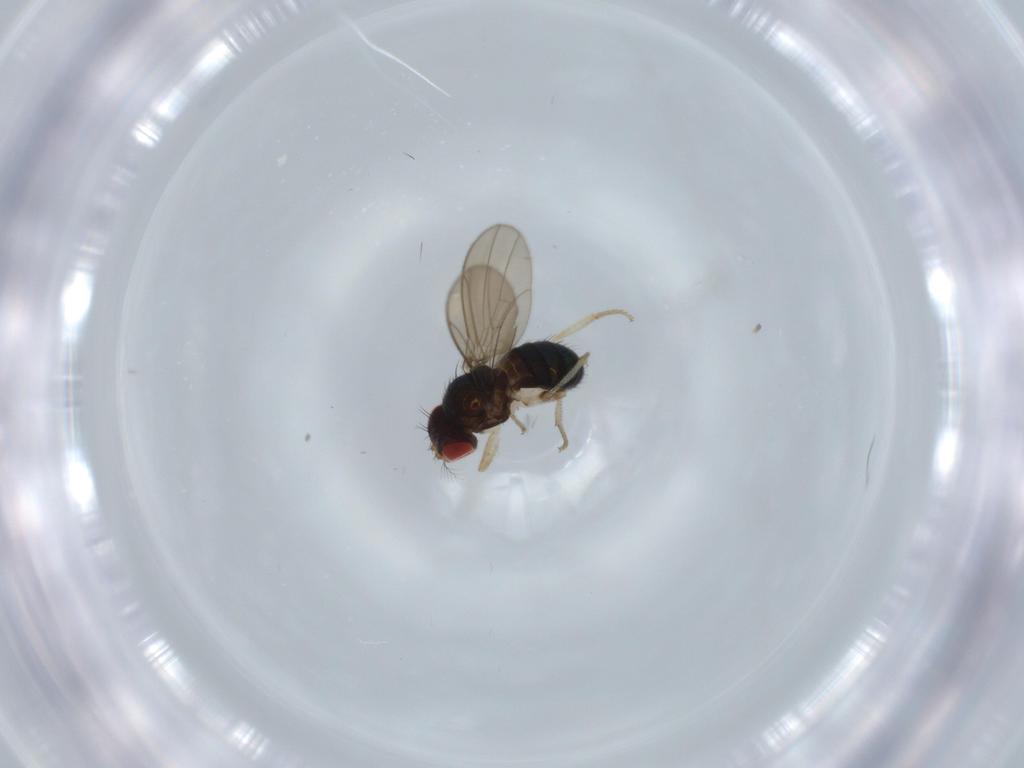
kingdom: Animalia
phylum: Arthropoda
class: Insecta
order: Diptera
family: Drosophilidae
